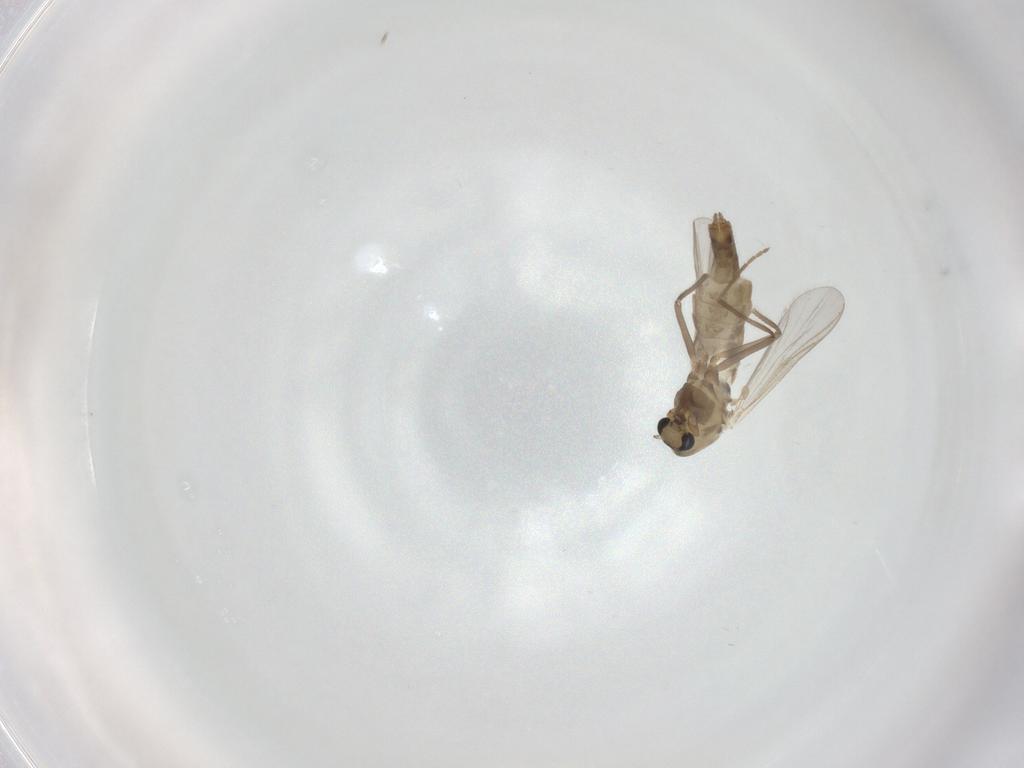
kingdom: Animalia
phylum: Arthropoda
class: Insecta
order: Diptera
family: Chironomidae
